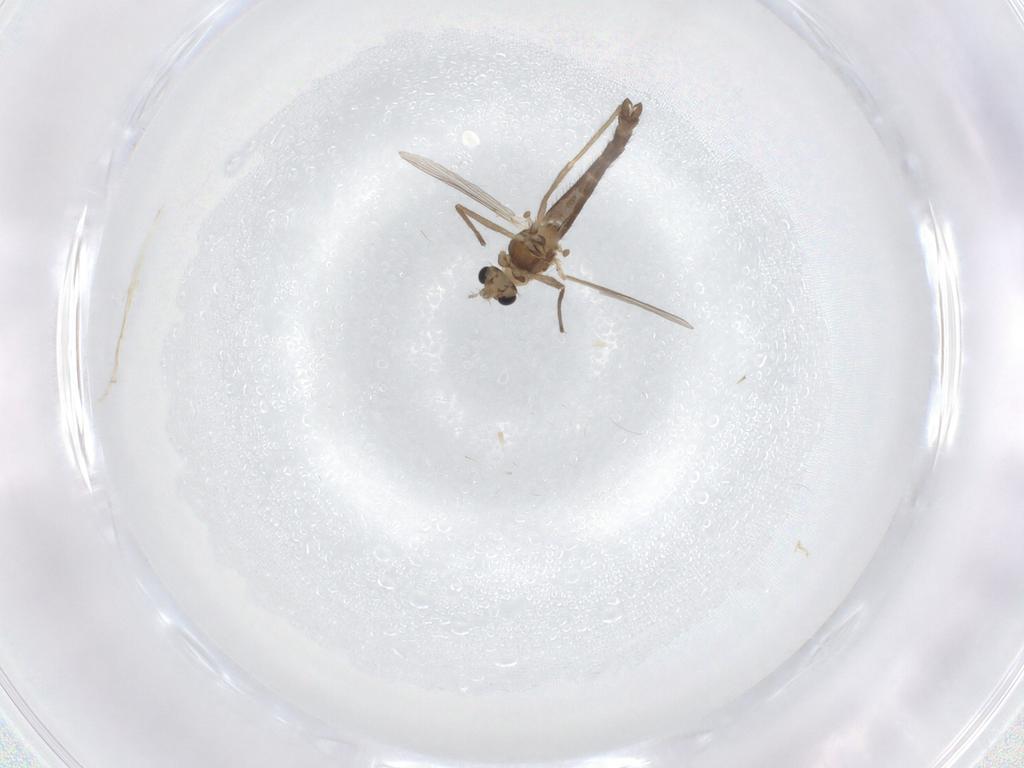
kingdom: Animalia
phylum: Arthropoda
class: Insecta
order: Diptera
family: Chironomidae
